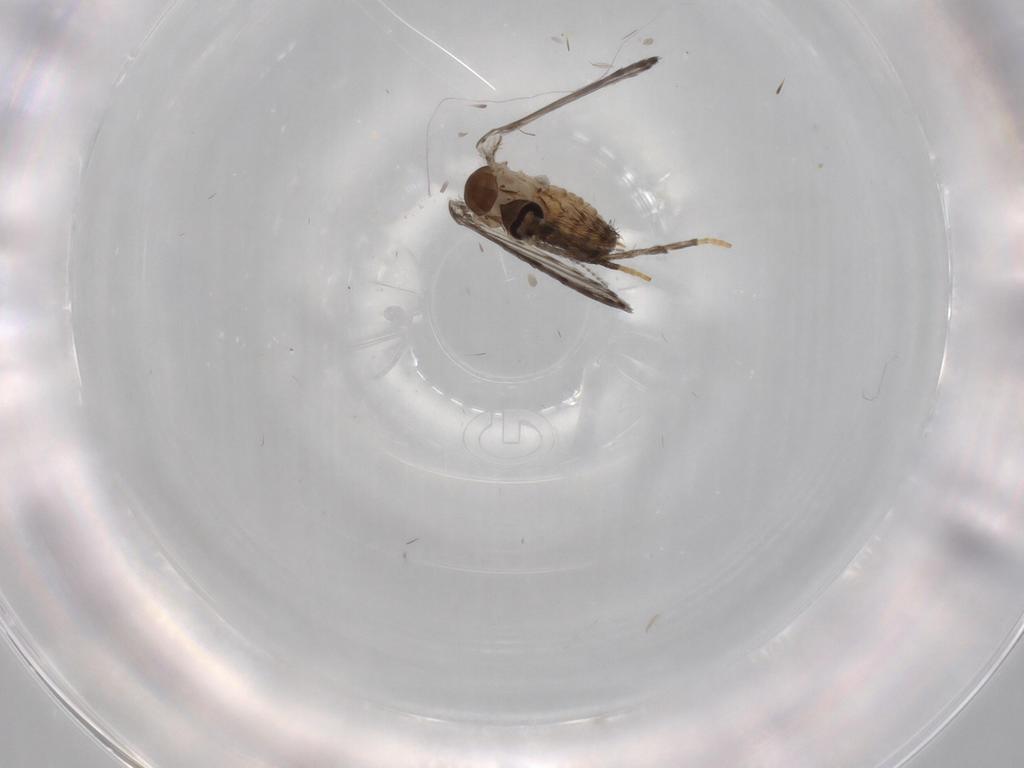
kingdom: Animalia
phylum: Arthropoda
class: Insecta
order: Diptera
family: Psychodidae
